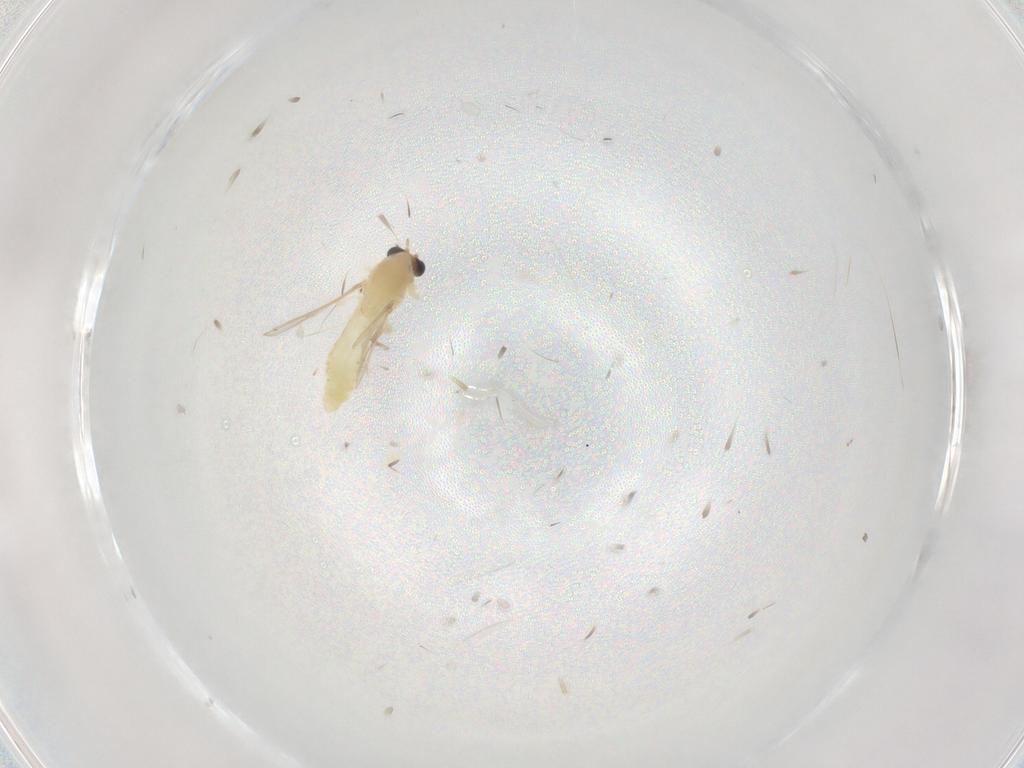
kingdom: Animalia
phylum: Arthropoda
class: Insecta
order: Diptera
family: Chironomidae
